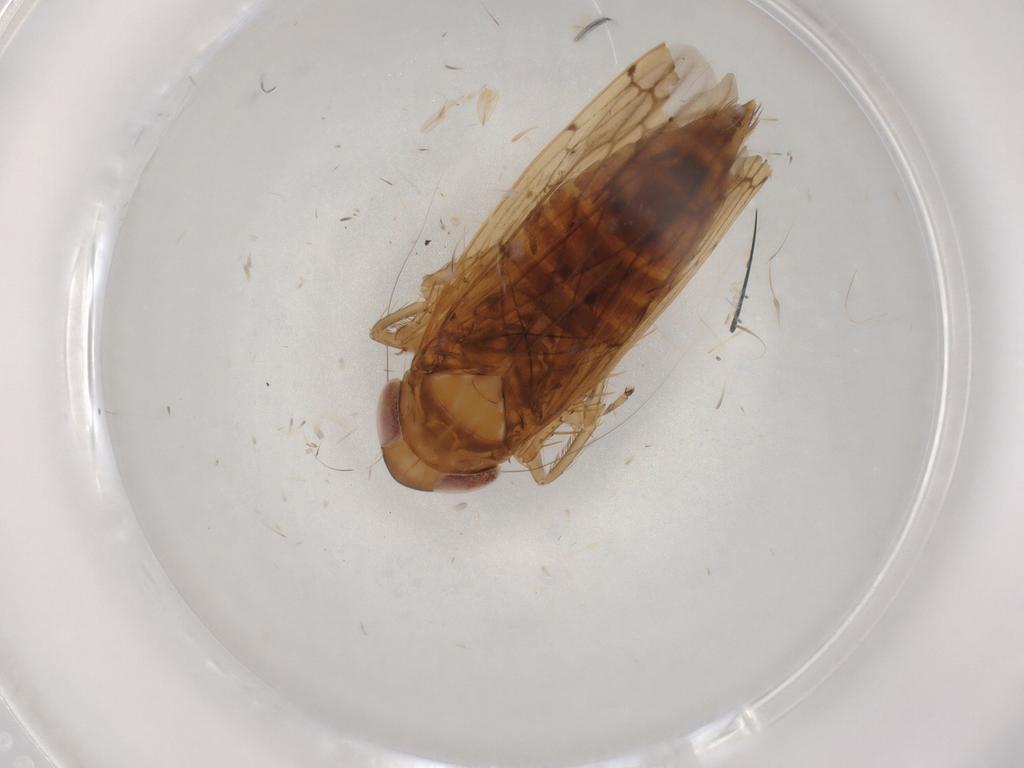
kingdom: Animalia
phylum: Arthropoda
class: Insecta
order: Hemiptera
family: Cicadellidae
